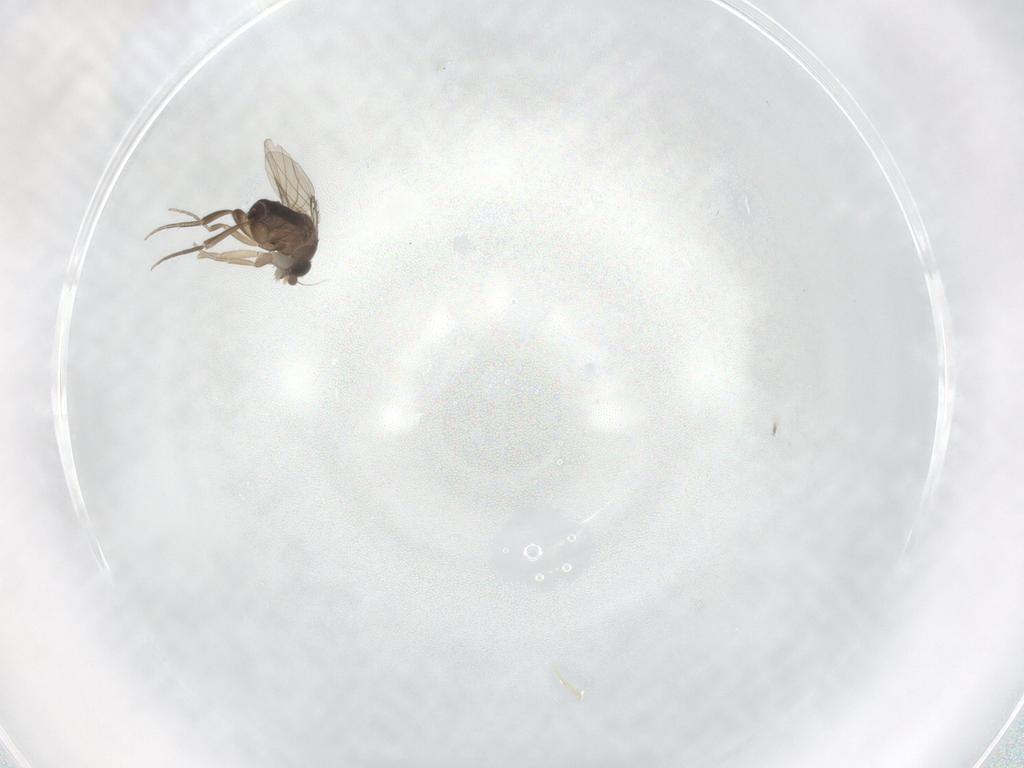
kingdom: Animalia
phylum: Arthropoda
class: Insecta
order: Diptera
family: Phoridae
